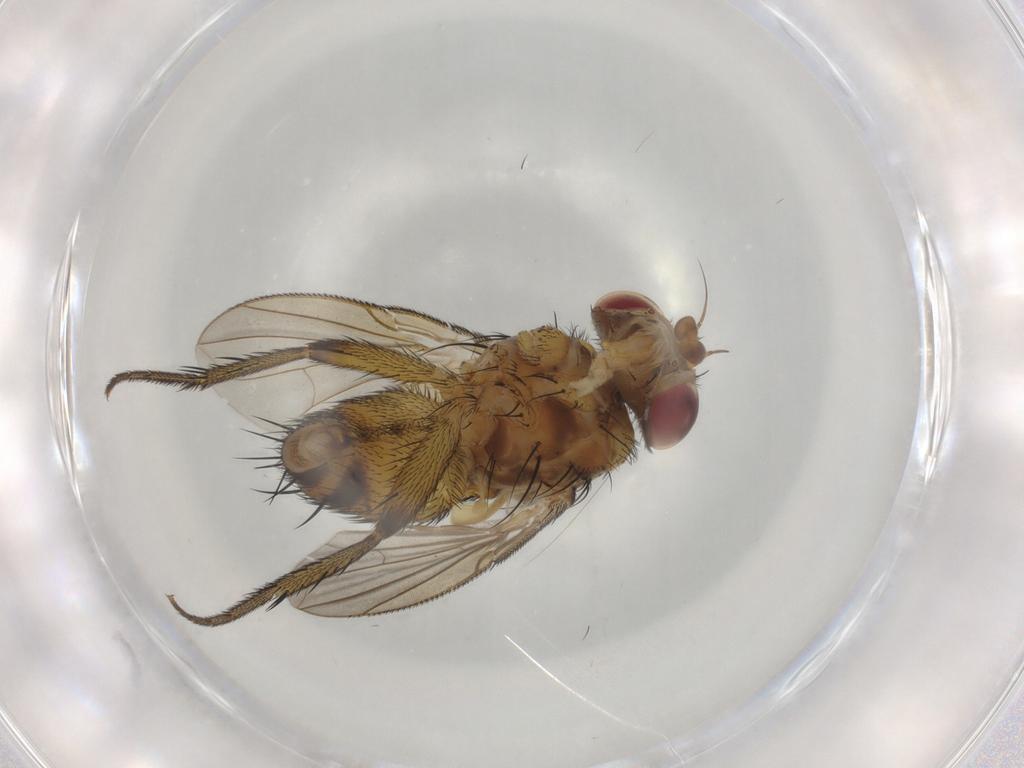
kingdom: Animalia
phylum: Arthropoda
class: Insecta
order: Diptera
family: Tachinidae
